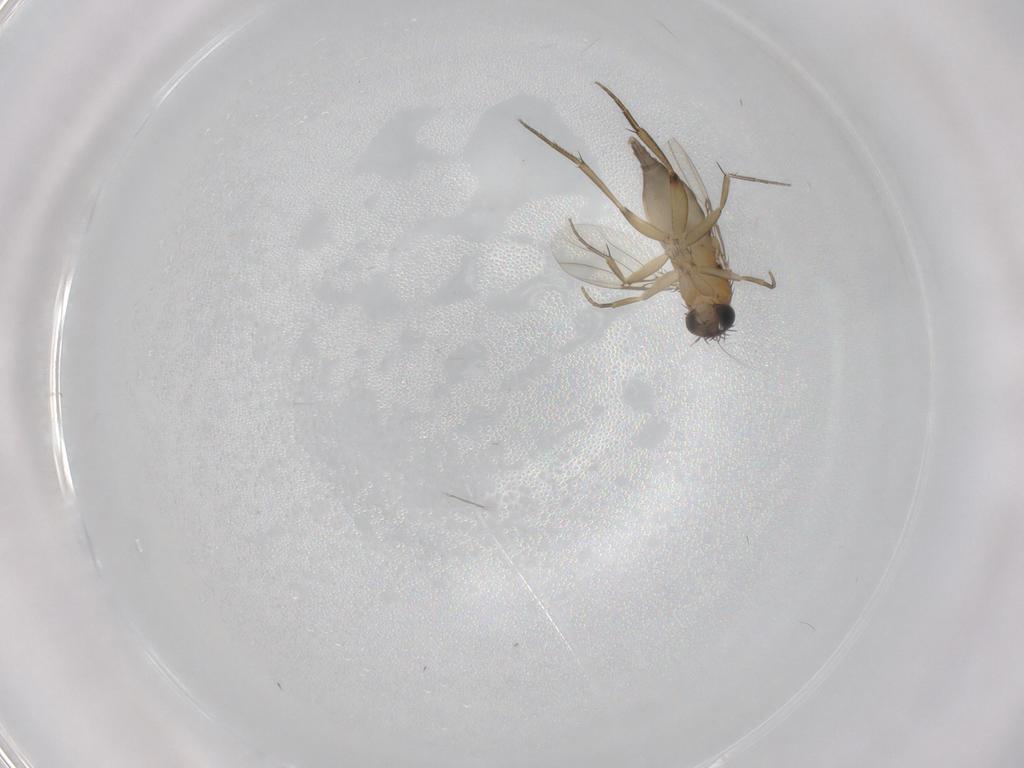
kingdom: Animalia
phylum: Arthropoda
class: Insecta
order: Diptera
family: Phoridae
